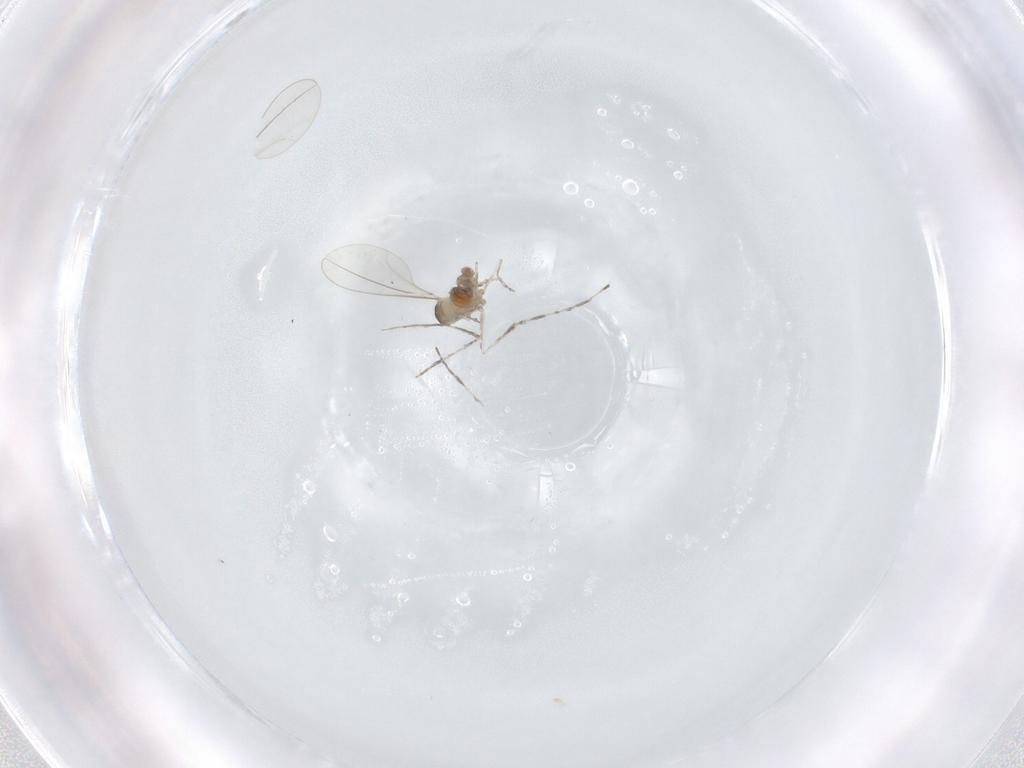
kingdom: Animalia
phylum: Arthropoda
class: Insecta
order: Diptera
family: Cecidomyiidae
